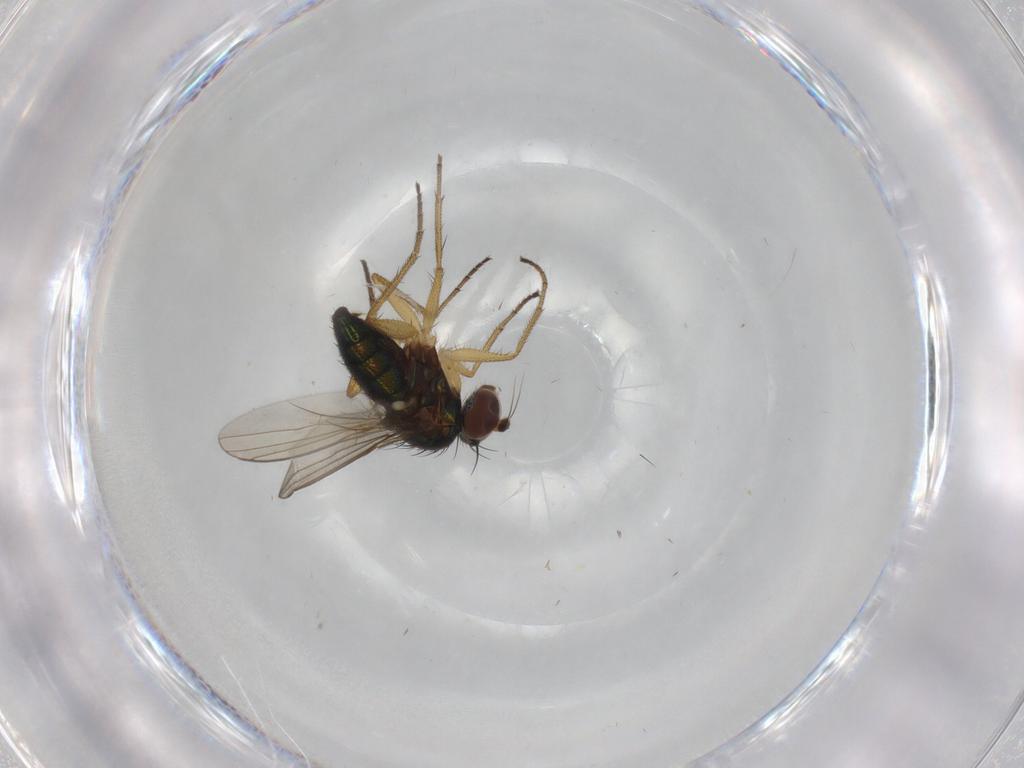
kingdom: Animalia
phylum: Arthropoda
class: Insecta
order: Diptera
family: Dolichopodidae
